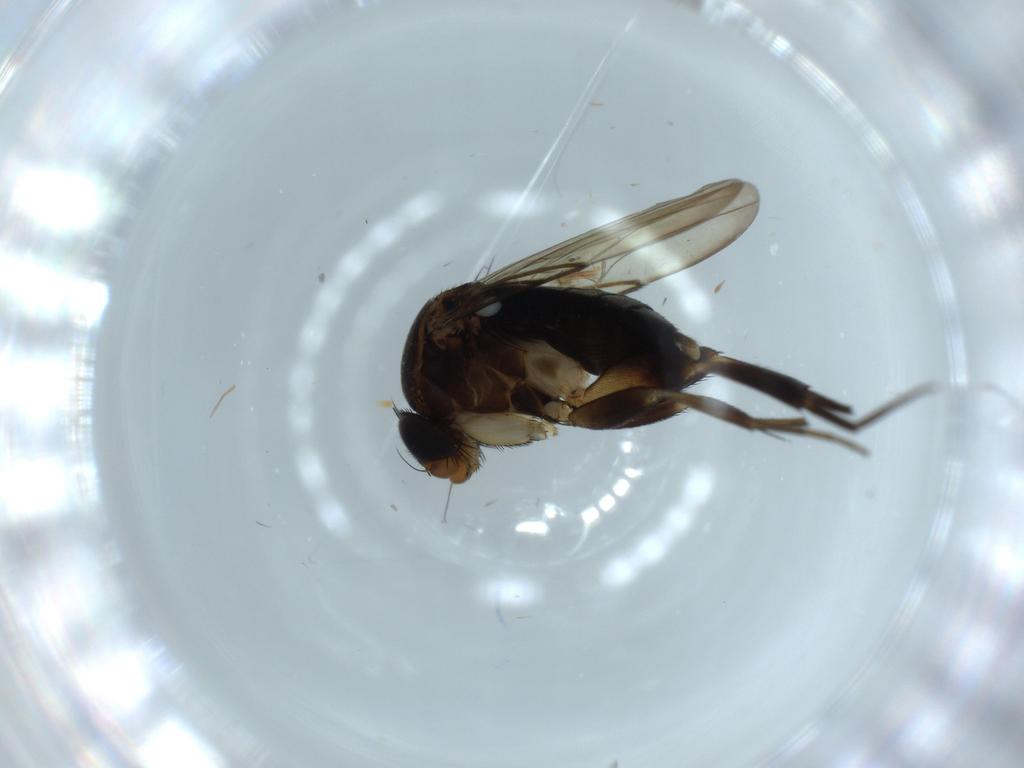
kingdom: Animalia
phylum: Arthropoda
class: Insecta
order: Diptera
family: Phoridae
